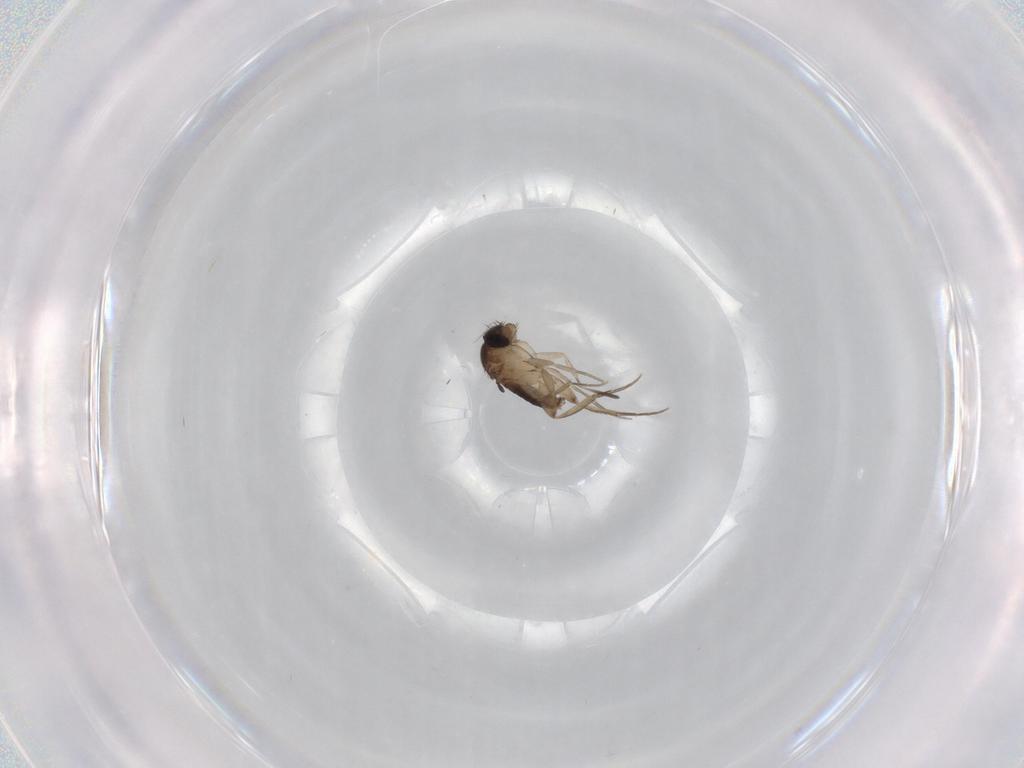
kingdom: Animalia
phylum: Arthropoda
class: Insecta
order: Diptera
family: Phoridae
